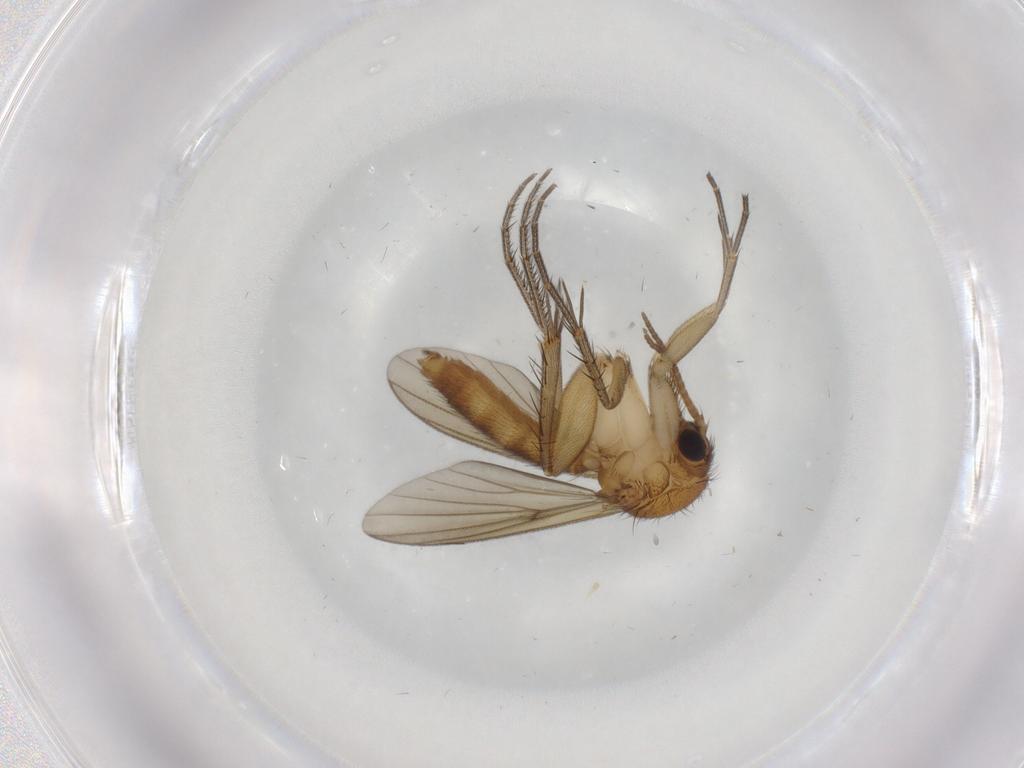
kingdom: Animalia
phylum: Arthropoda
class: Insecta
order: Diptera
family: Mycetophilidae
